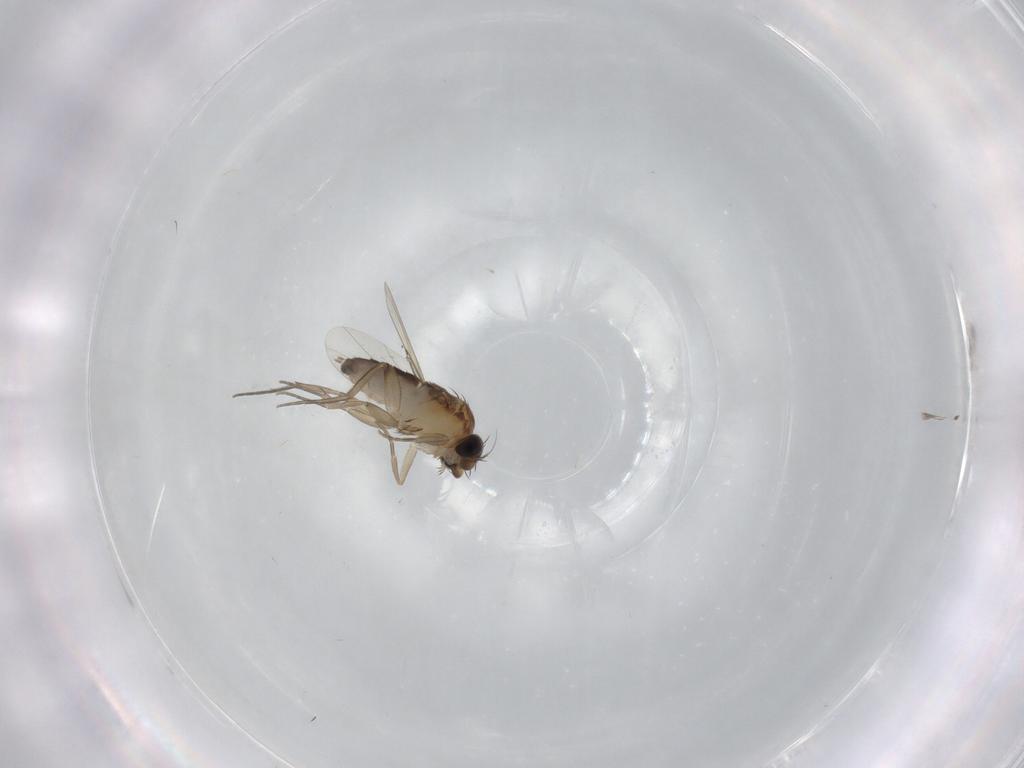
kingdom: Animalia
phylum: Arthropoda
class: Insecta
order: Diptera
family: Phoridae
